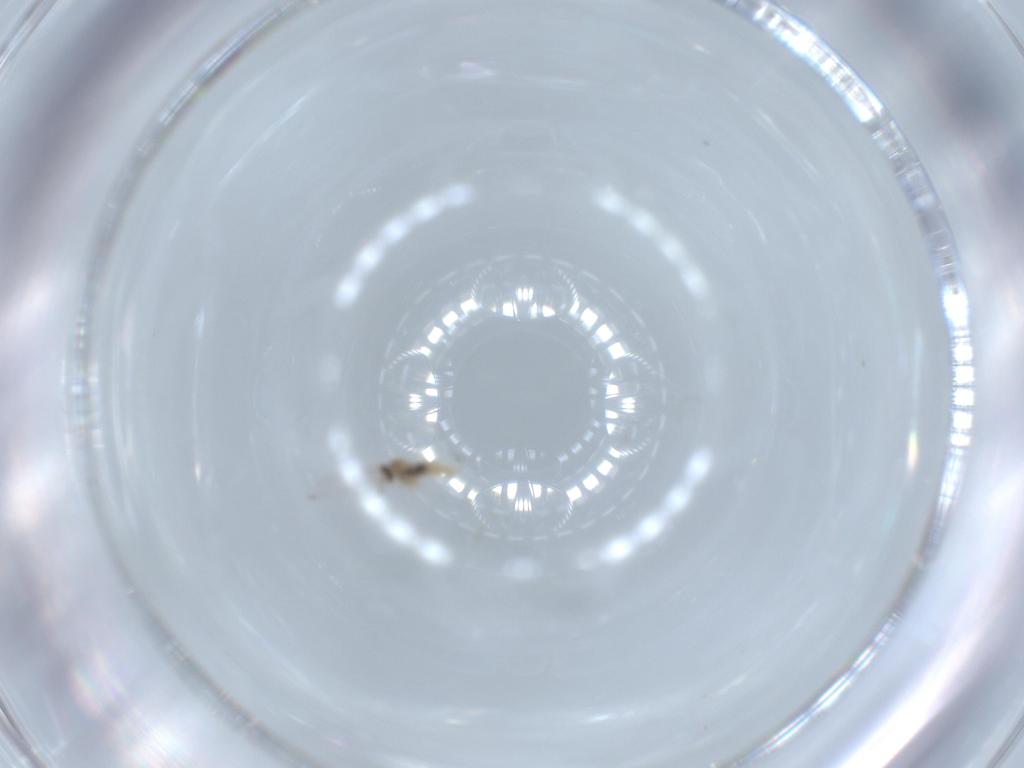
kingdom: Animalia
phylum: Arthropoda
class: Insecta
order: Diptera
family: Cecidomyiidae
